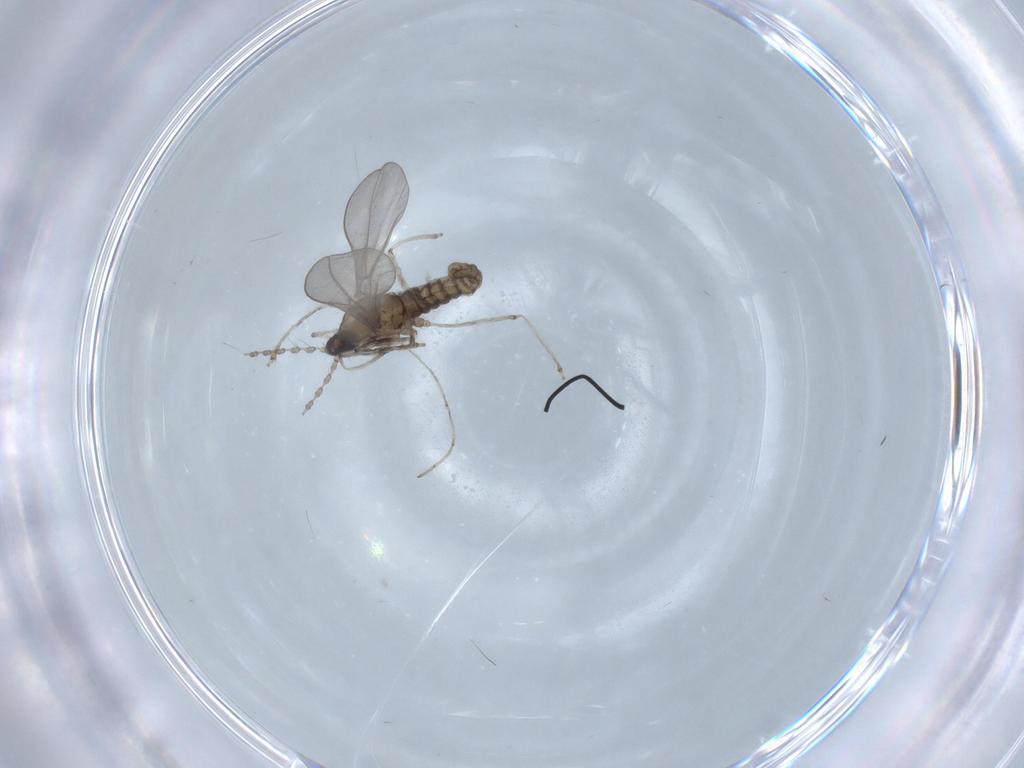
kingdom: Animalia
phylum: Arthropoda
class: Insecta
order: Diptera
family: Cecidomyiidae
